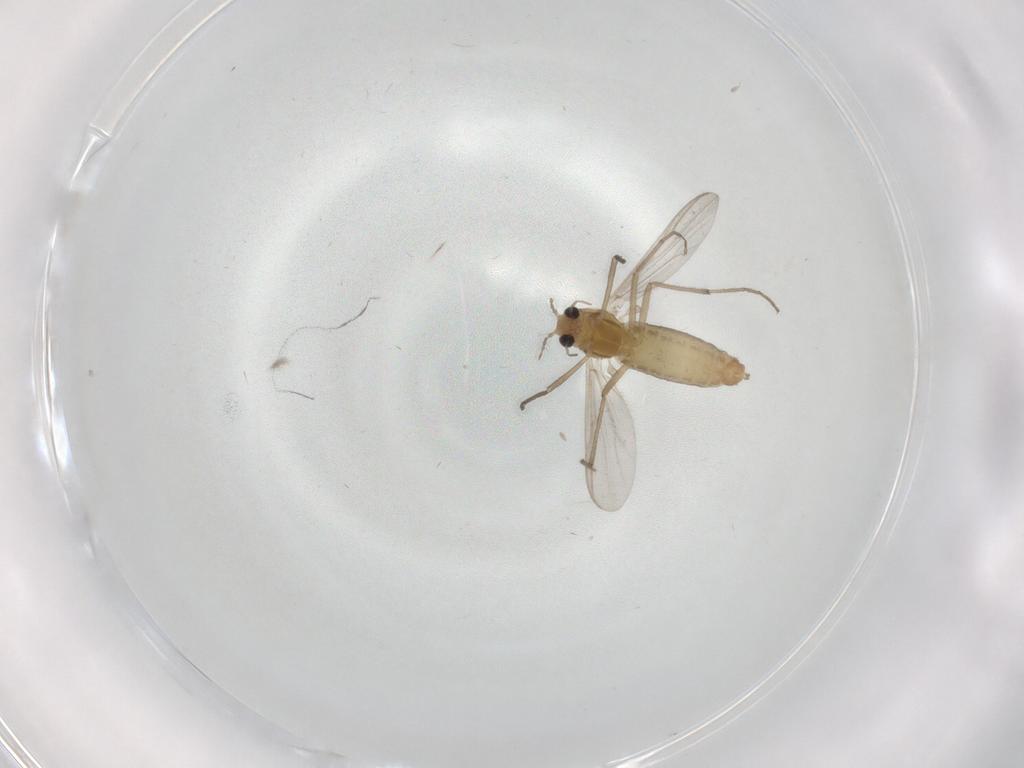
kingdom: Animalia
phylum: Arthropoda
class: Insecta
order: Diptera
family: Chironomidae
